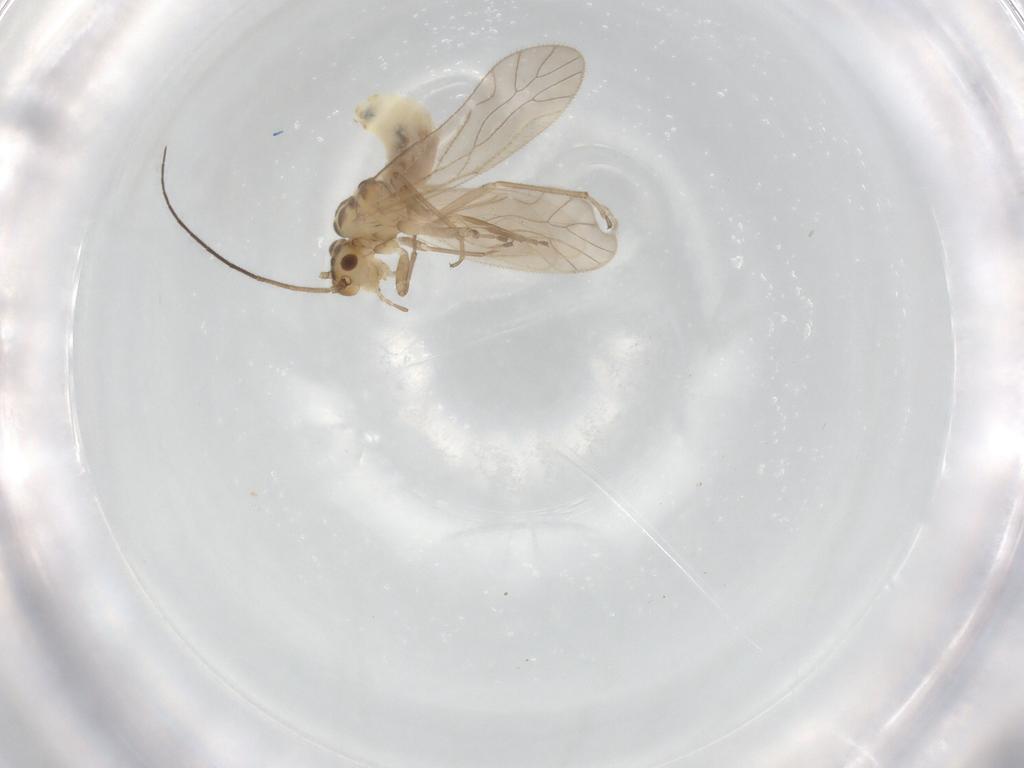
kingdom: Animalia
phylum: Arthropoda
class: Insecta
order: Psocodea
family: Caeciliusidae
